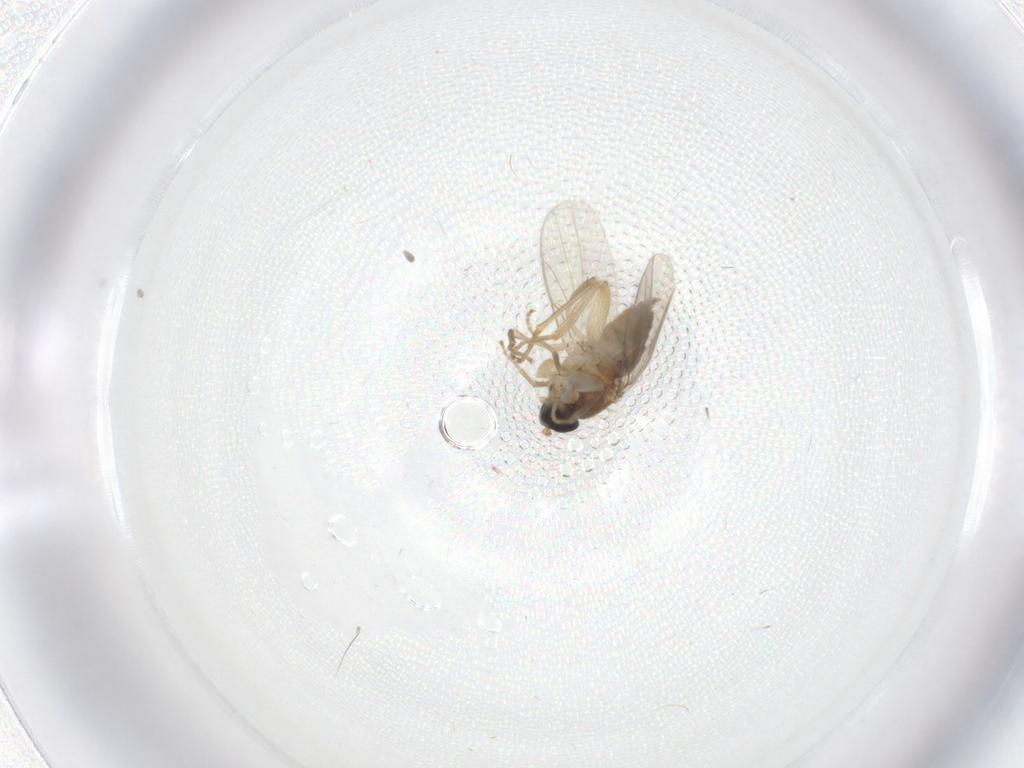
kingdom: Animalia
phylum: Arthropoda
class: Insecta
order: Diptera
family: Hybotidae
